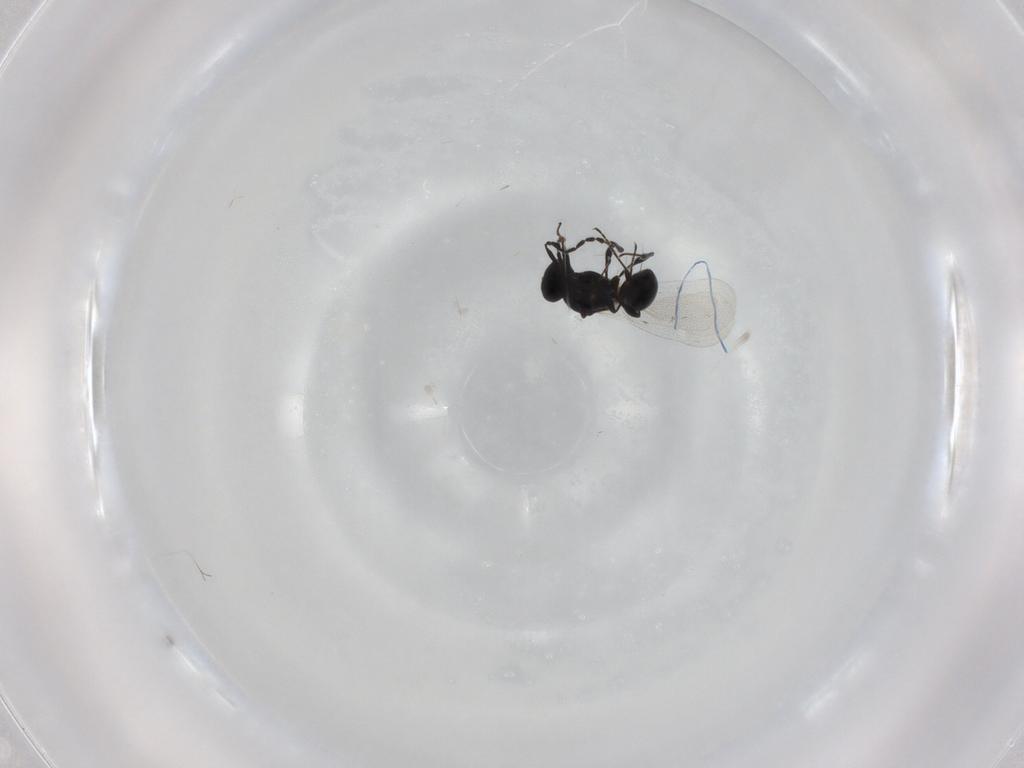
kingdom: Animalia
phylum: Arthropoda
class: Insecta
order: Hymenoptera
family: Platygastridae
